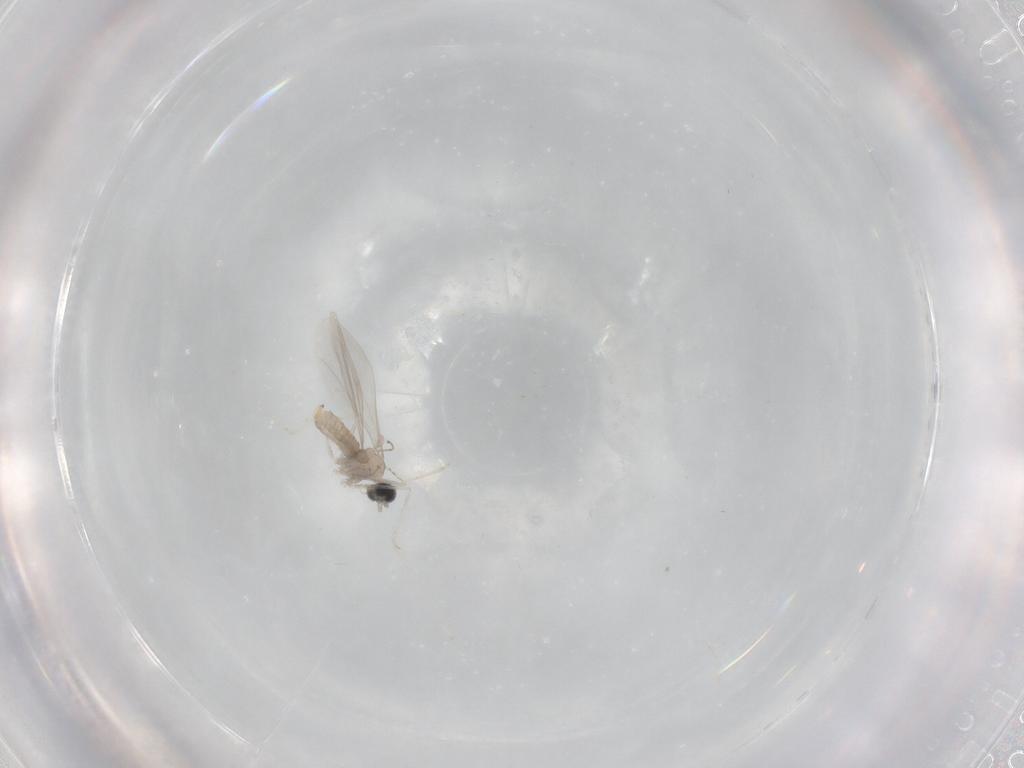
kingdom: Animalia
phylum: Arthropoda
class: Insecta
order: Diptera
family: Cecidomyiidae
